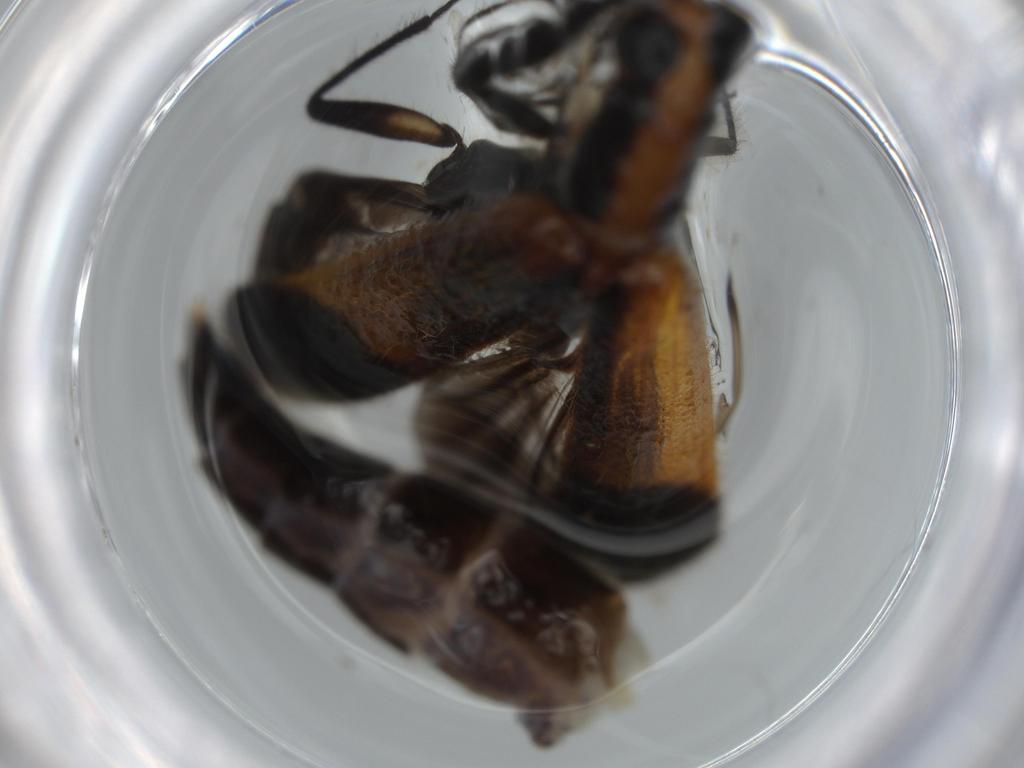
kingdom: Animalia
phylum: Arthropoda
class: Insecta
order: Coleoptera
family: Cleridae
